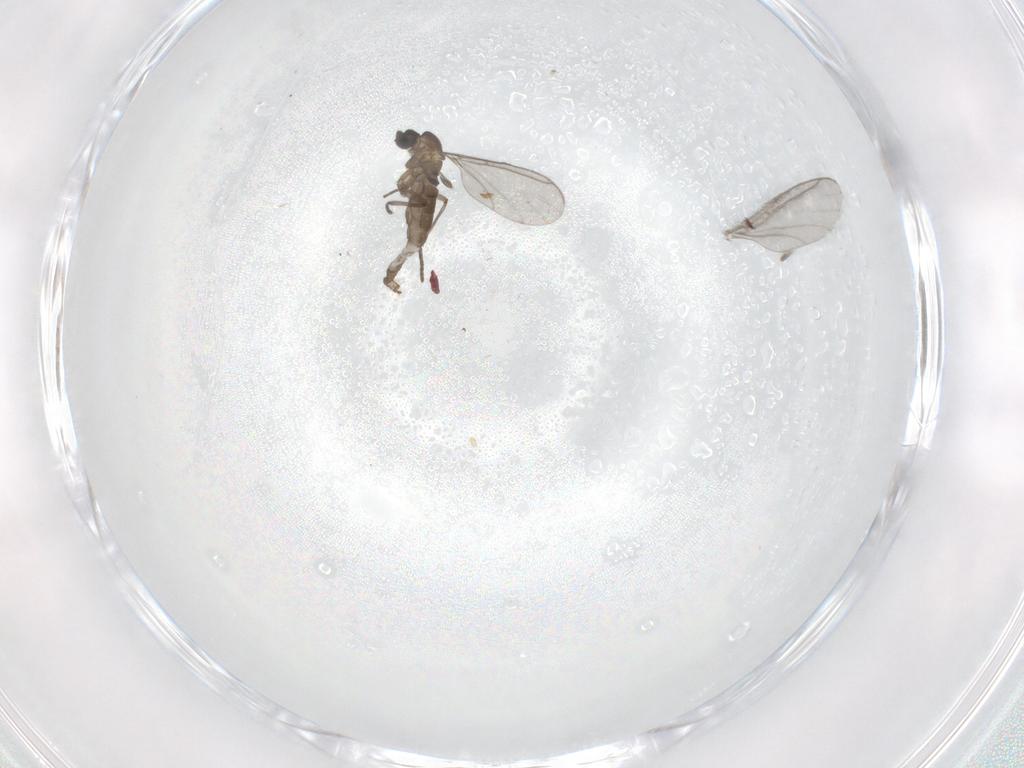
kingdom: Animalia
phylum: Arthropoda
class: Insecta
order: Diptera
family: Sciaridae
